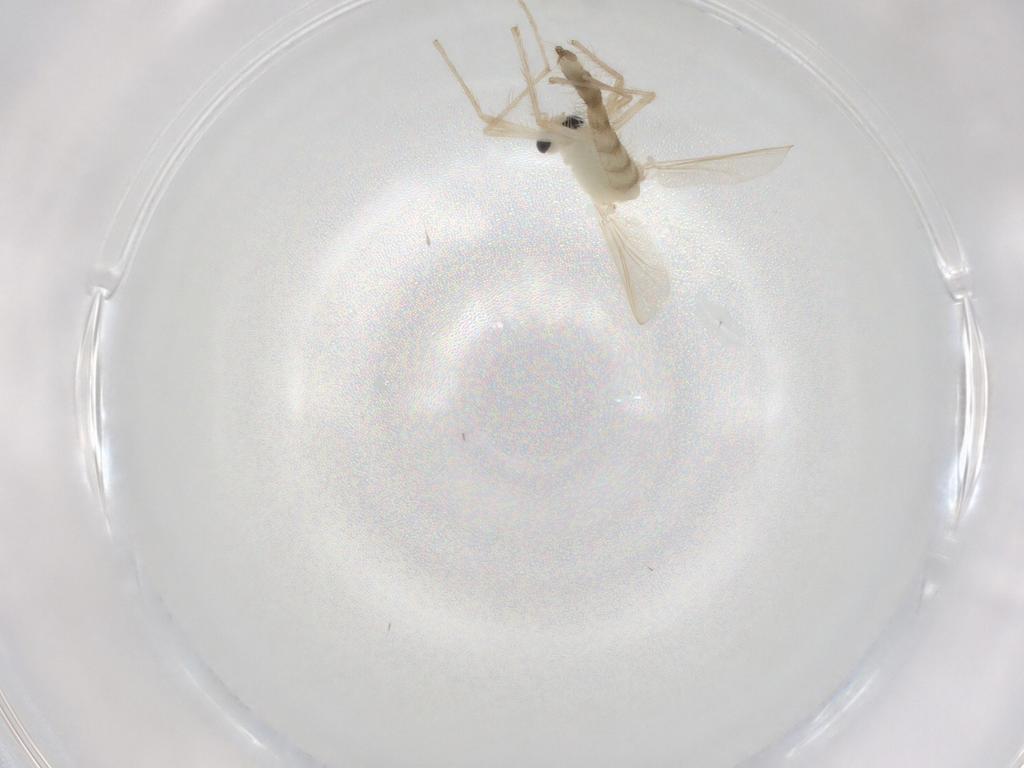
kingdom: Animalia
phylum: Arthropoda
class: Insecta
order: Diptera
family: Chironomidae
